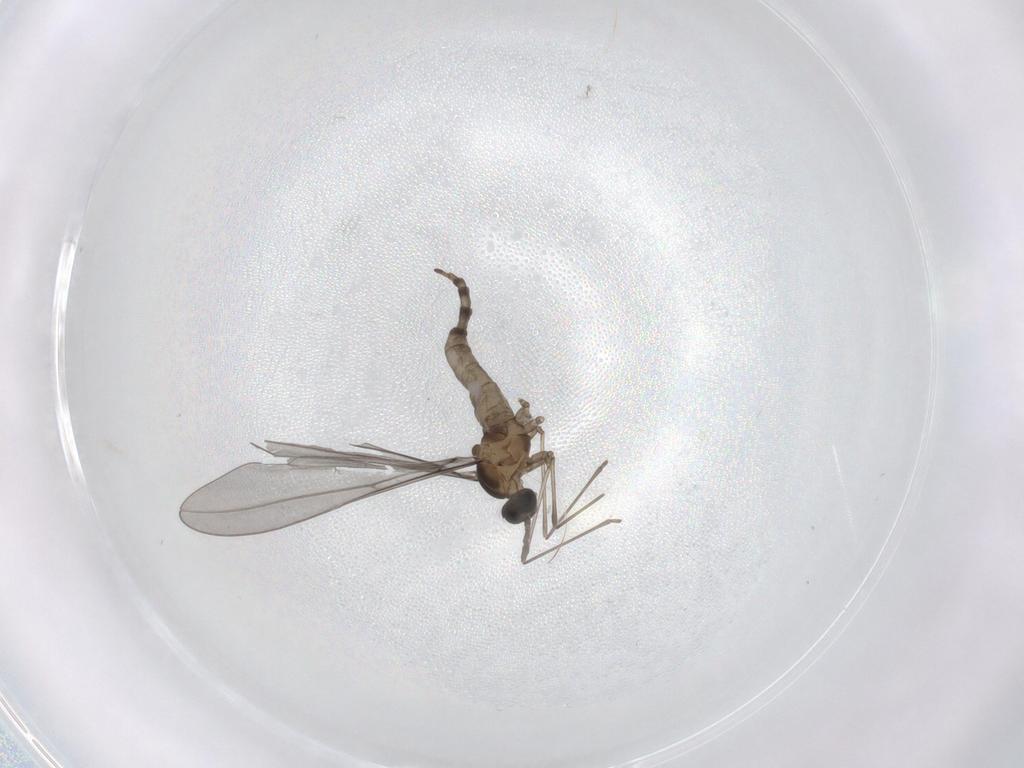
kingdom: Animalia
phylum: Arthropoda
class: Insecta
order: Diptera
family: Cecidomyiidae
